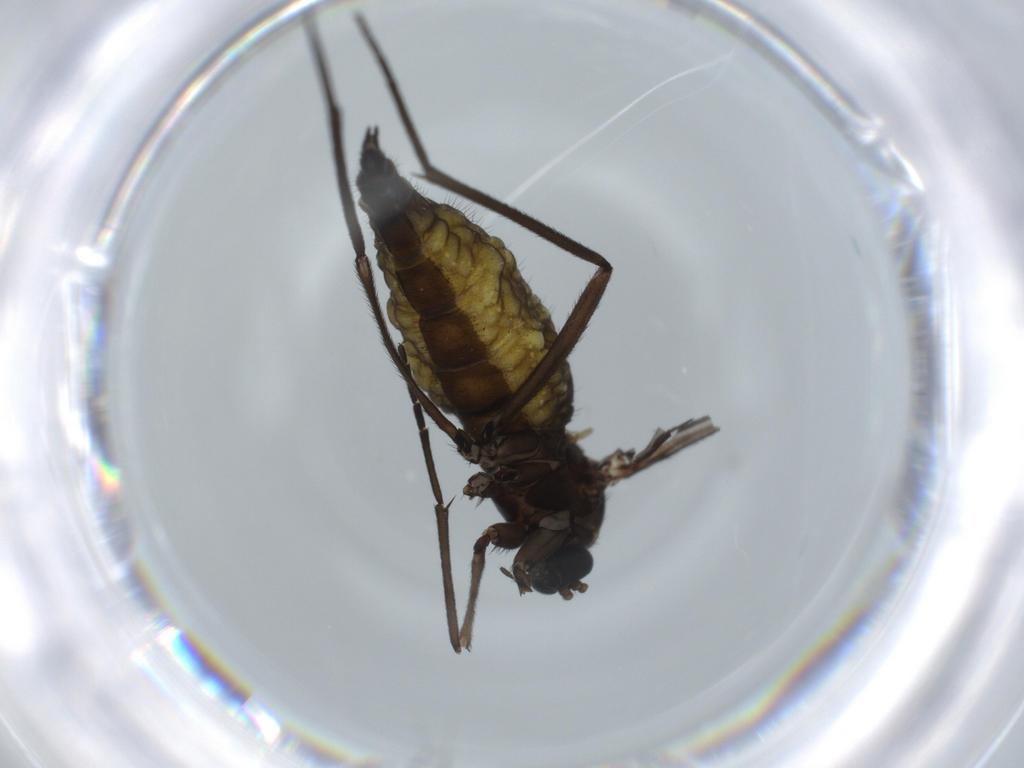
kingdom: Animalia
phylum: Arthropoda
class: Insecta
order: Diptera
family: Sciaridae
